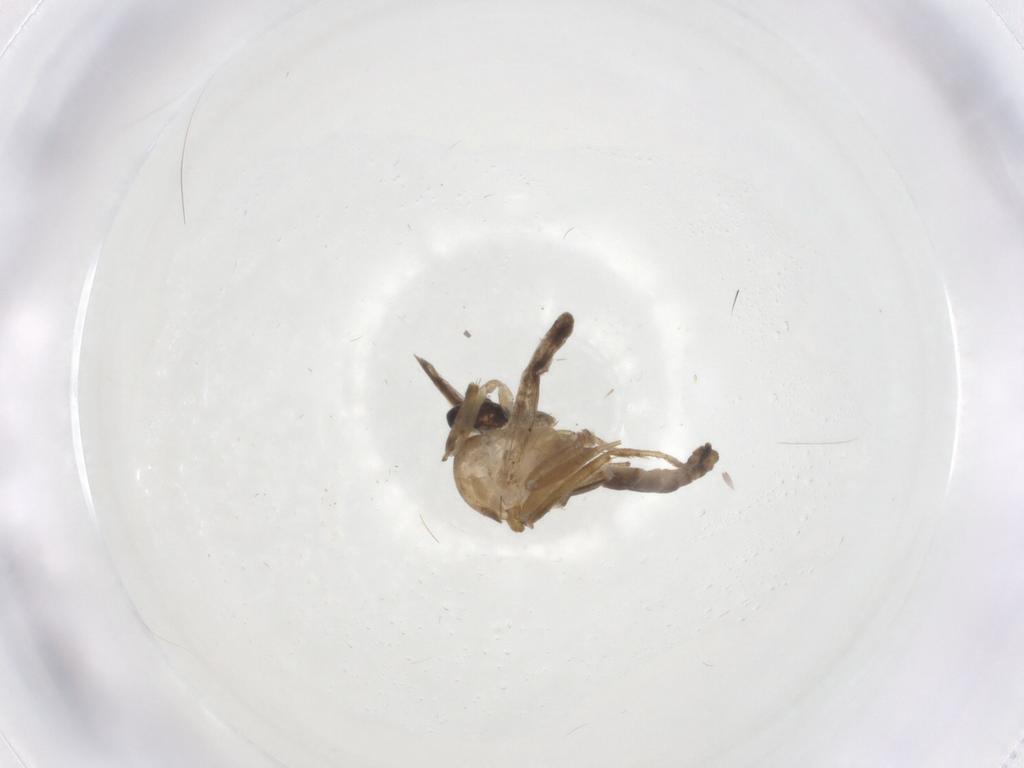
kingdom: Animalia
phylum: Arthropoda
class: Insecta
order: Diptera
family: Ceratopogonidae
